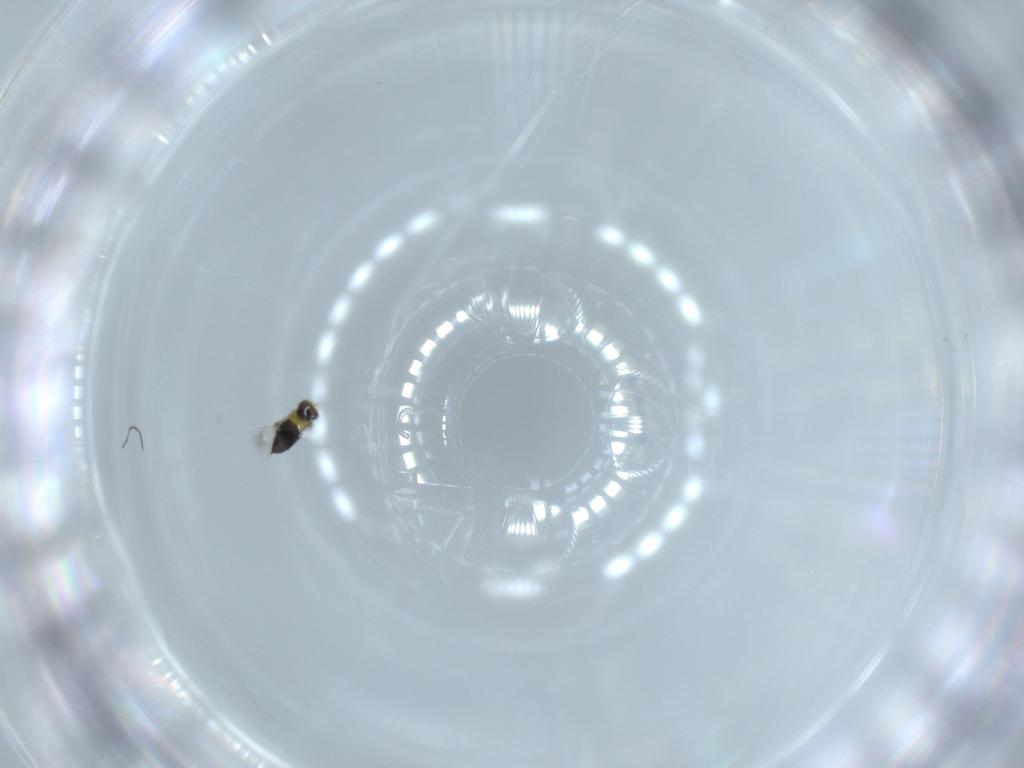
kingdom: Animalia
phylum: Arthropoda
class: Insecta
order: Hymenoptera
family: Signiphoridae
